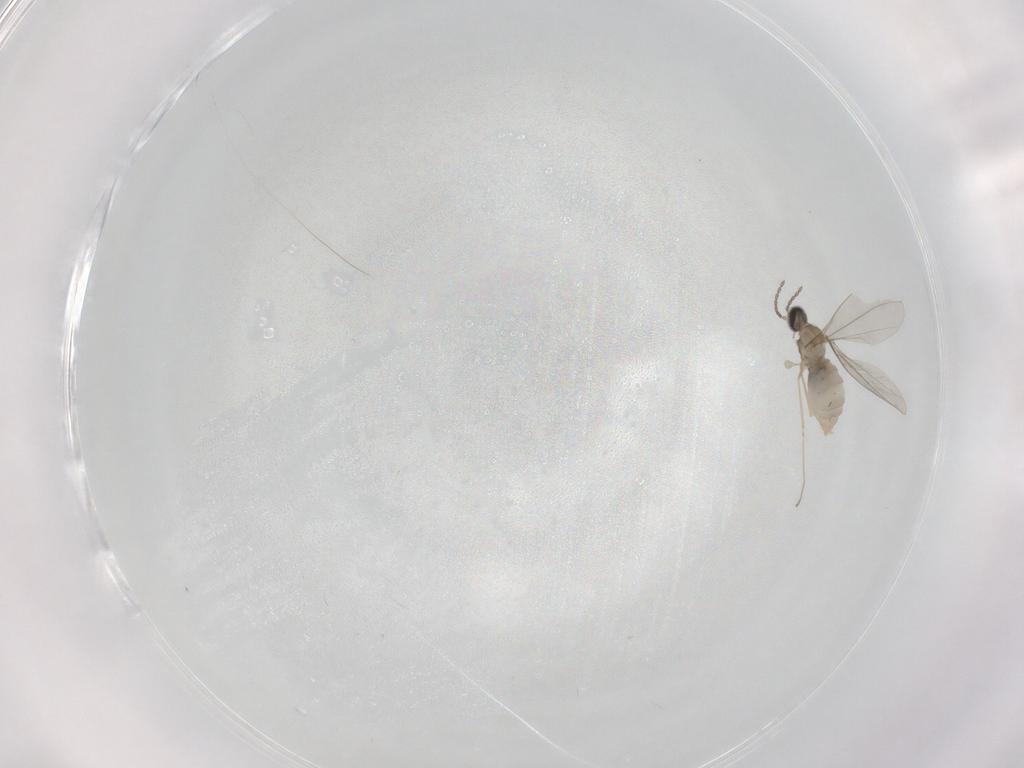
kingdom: Animalia
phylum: Arthropoda
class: Insecta
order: Diptera
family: Cecidomyiidae
